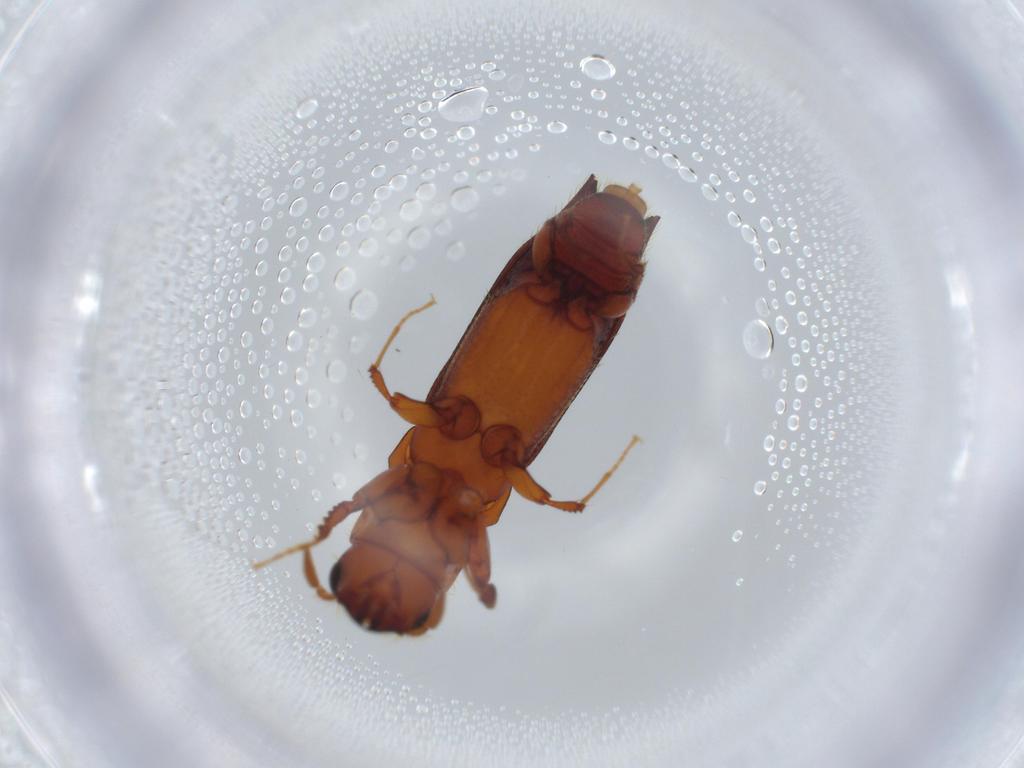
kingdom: Animalia
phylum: Arthropoda
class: Insecta
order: Coleoptera
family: Curculionidae
